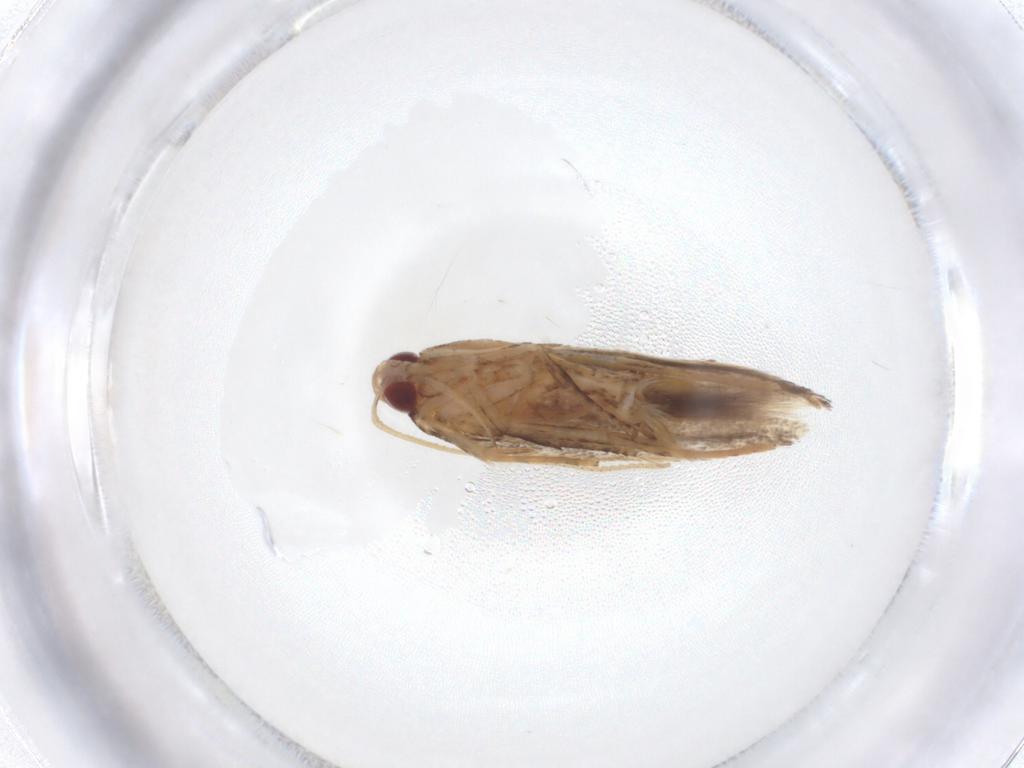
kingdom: Animalia
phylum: Arthropoda
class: Insecta
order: Lepidoptera
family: Cosmopterigidae
